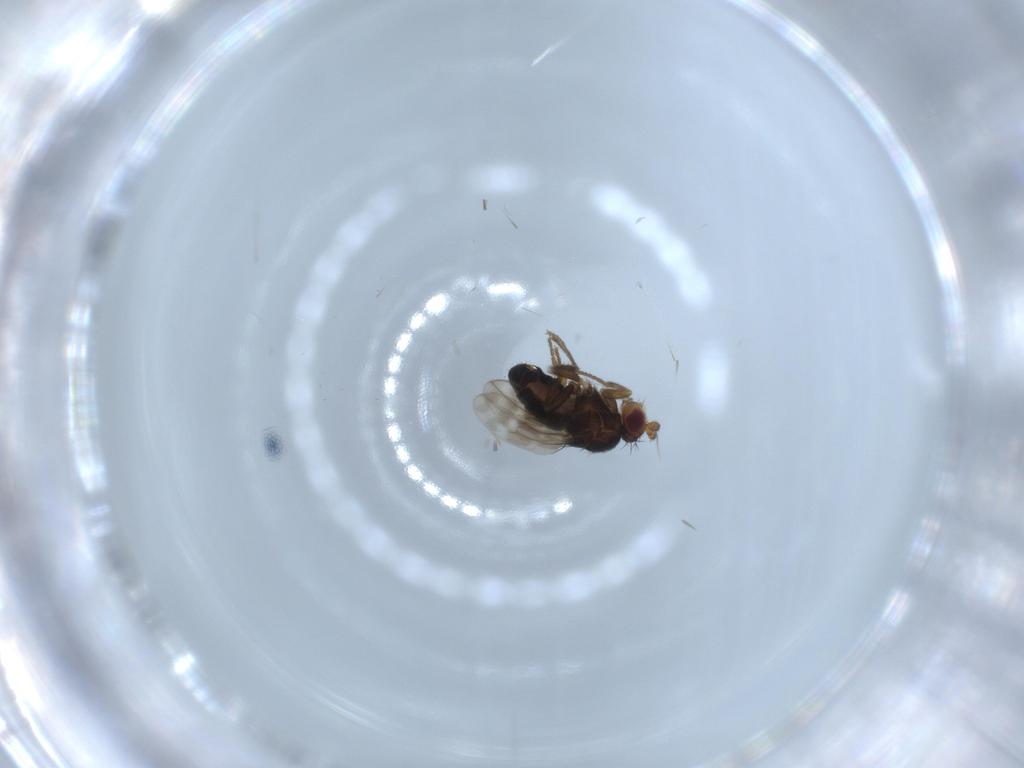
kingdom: Animalia
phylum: Arthropoda
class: Insecta
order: Diptera
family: Sphaeroceridae
